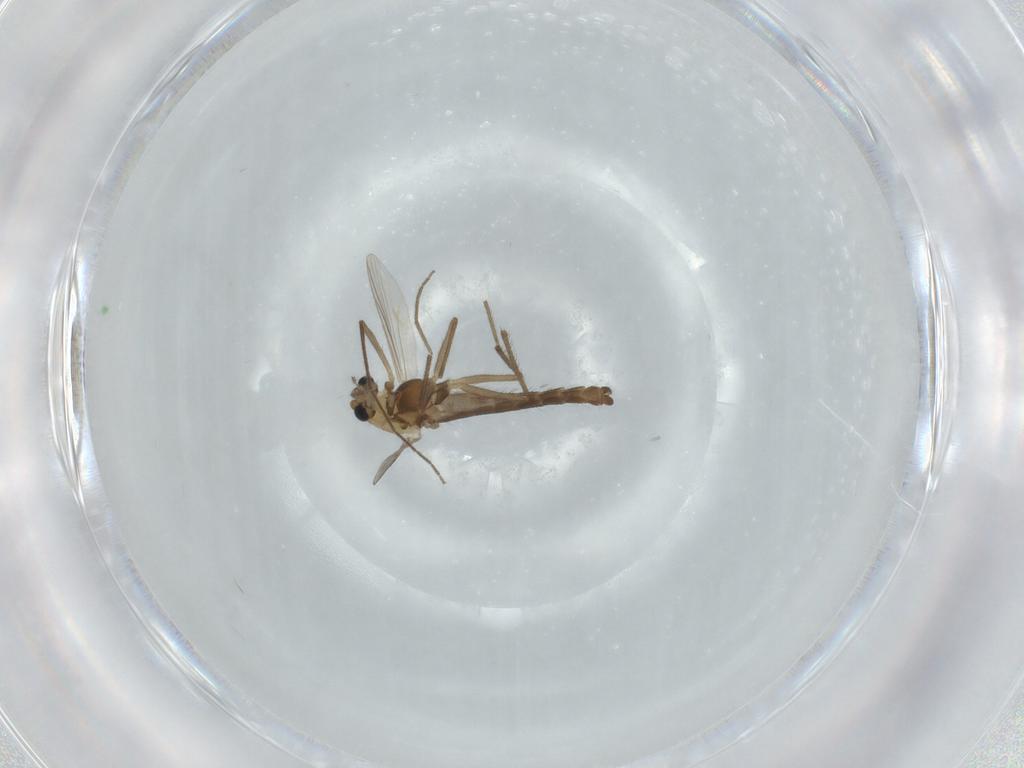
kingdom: Animalia
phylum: Arthropoda
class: Insecta
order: Diptera
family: Chironomidae
